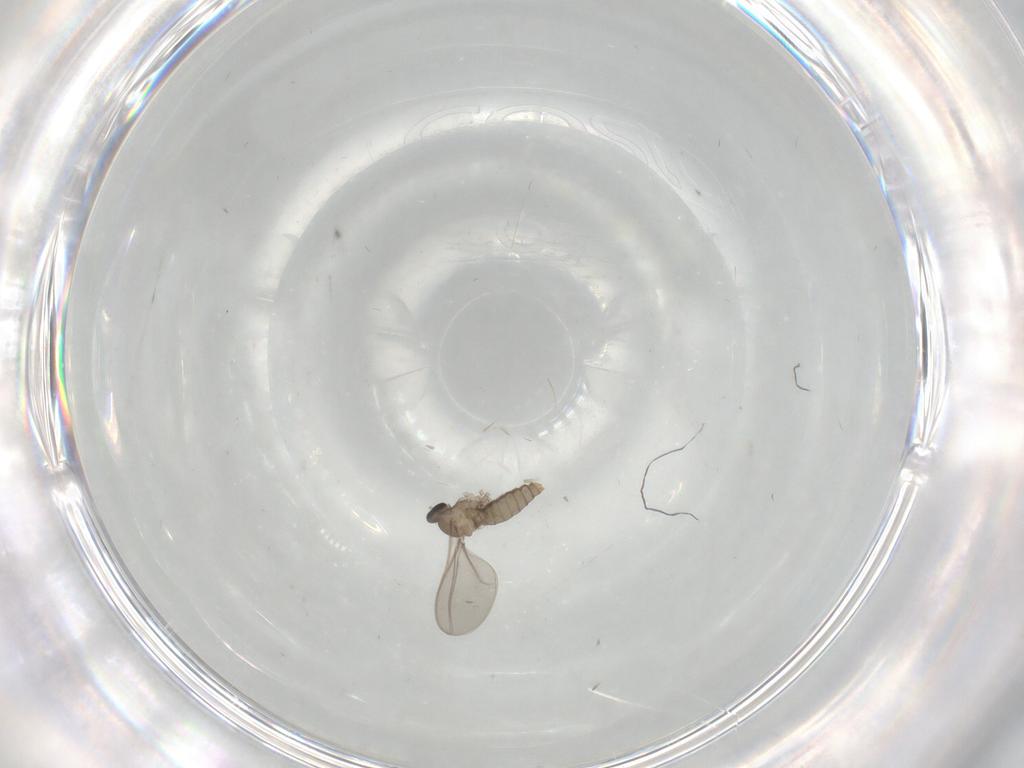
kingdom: Animalia
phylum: Arthropoda
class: Insecta
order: Diptera
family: Cecidomyiidae
